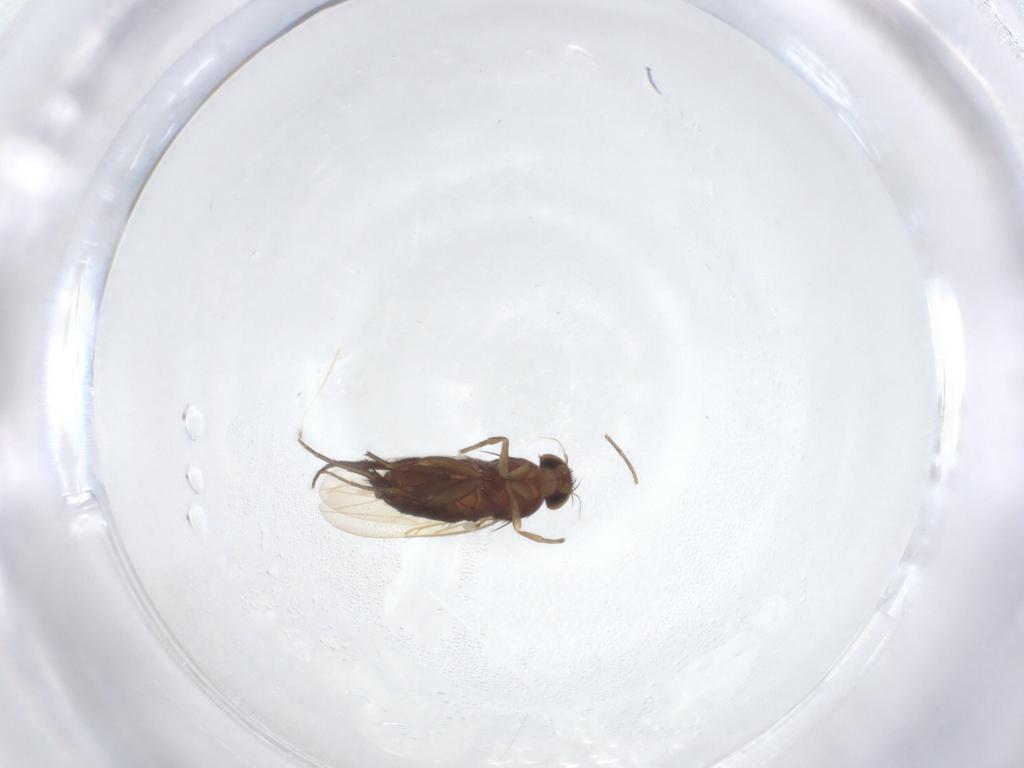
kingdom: Animalia
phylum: Arthropoda
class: Insecta
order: Diptera
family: Phoridae
